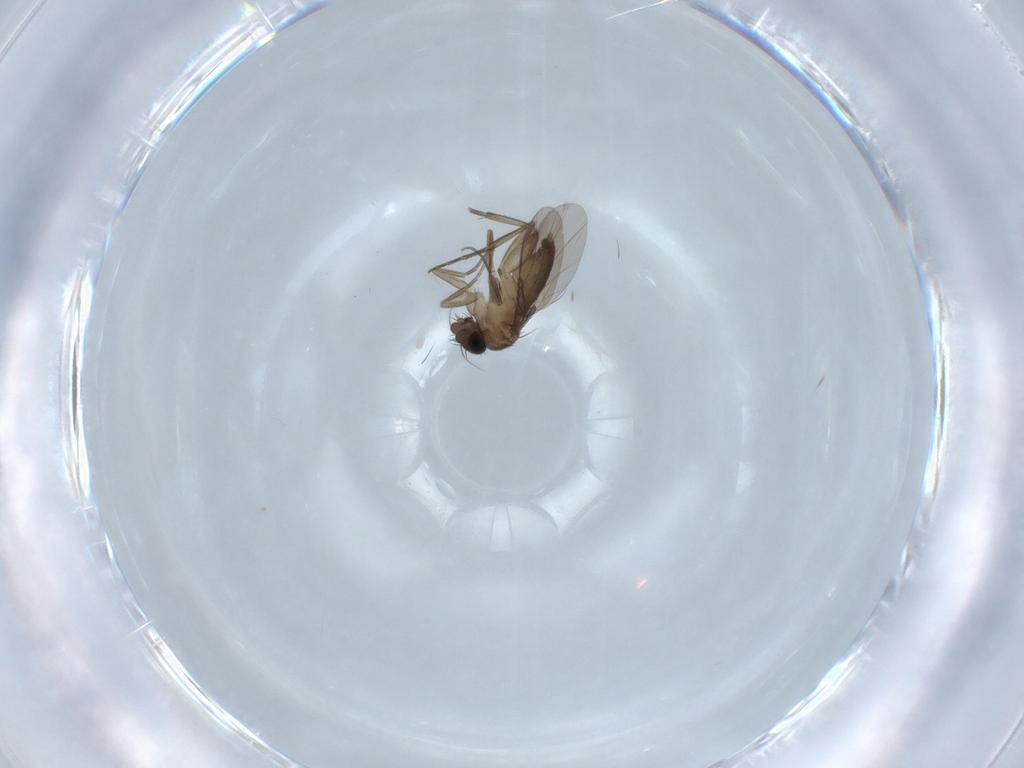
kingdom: Animalia
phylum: Arthropoda
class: Insecta
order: Diptera
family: Phoridae
